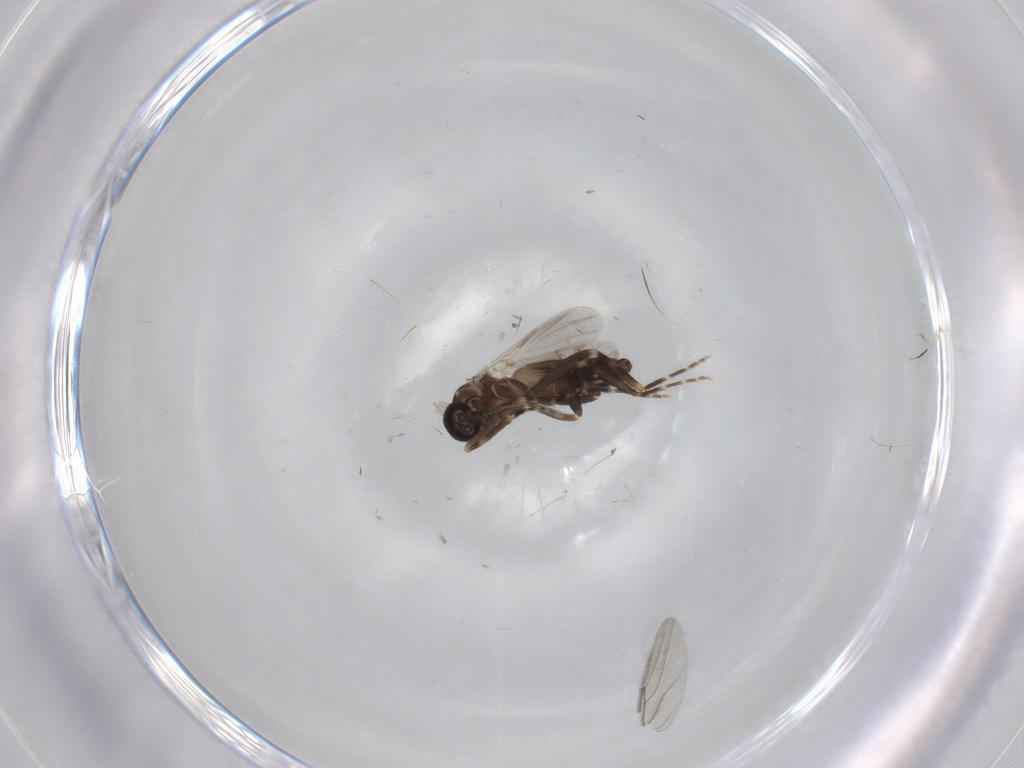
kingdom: Animalia
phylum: Arthropoda
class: Insecta
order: Diptera
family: Ceratopogonidae
